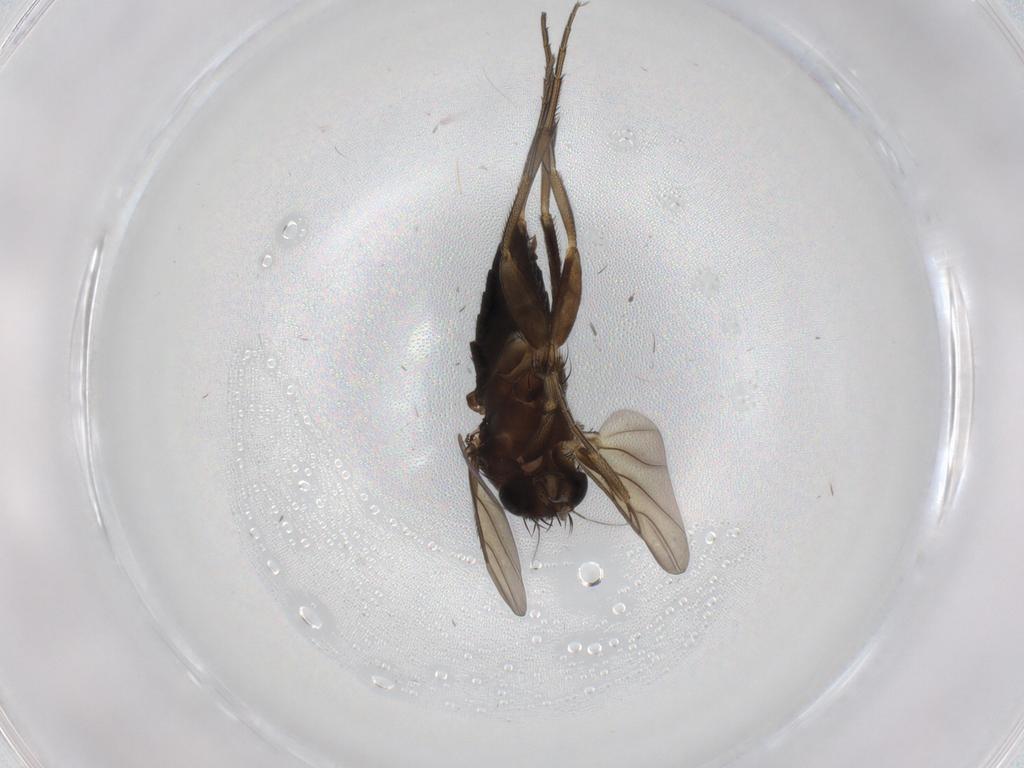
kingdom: Animalia
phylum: Arthropoda
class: Insecta
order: Diptera
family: Phoridae
